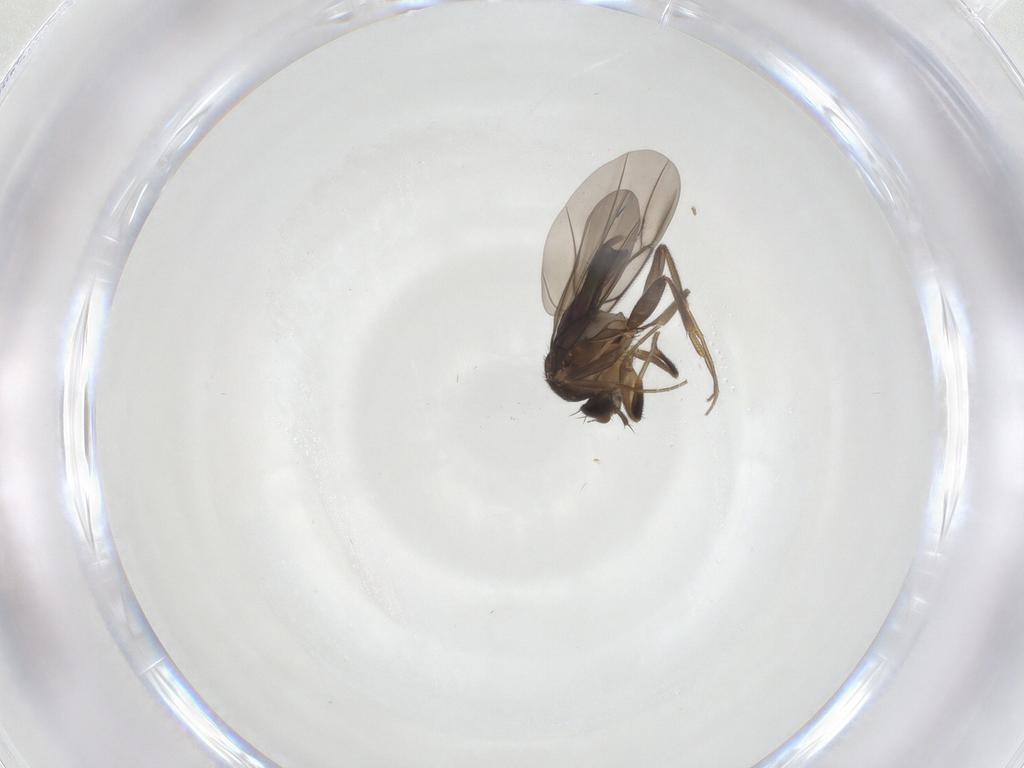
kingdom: Animalia
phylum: Arthropoda
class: Insecta
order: Diptera
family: Phoridae
